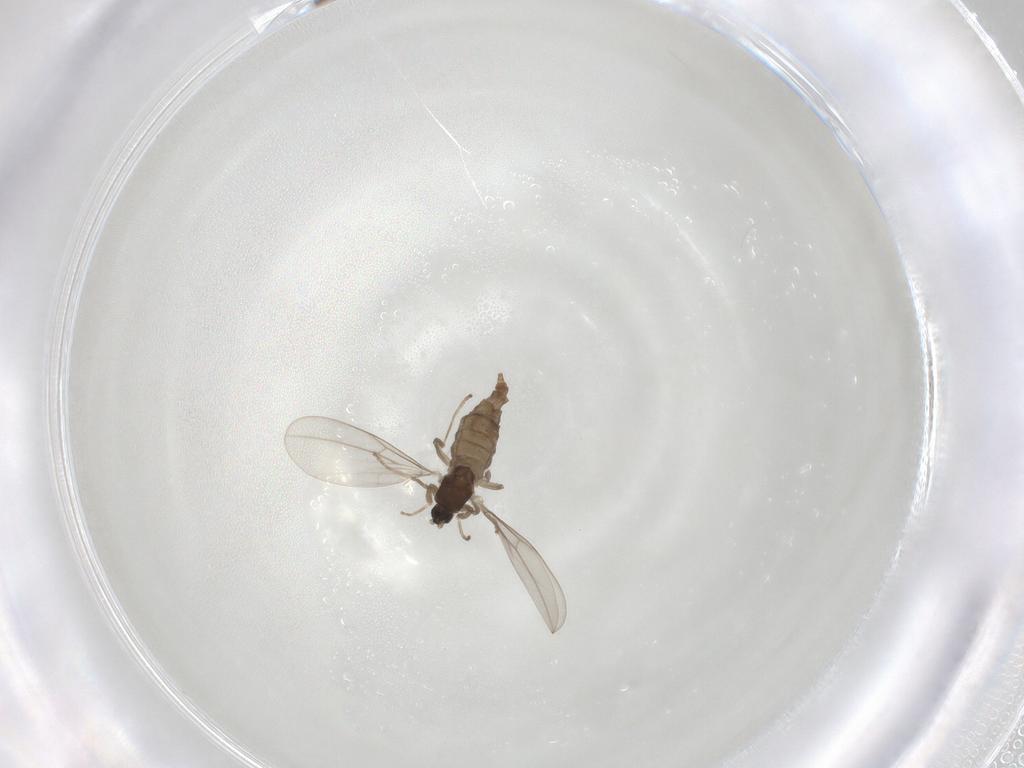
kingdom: Animalia
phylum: Arthropoda
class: Insecta
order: Diptera
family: Cecidomyiidae
